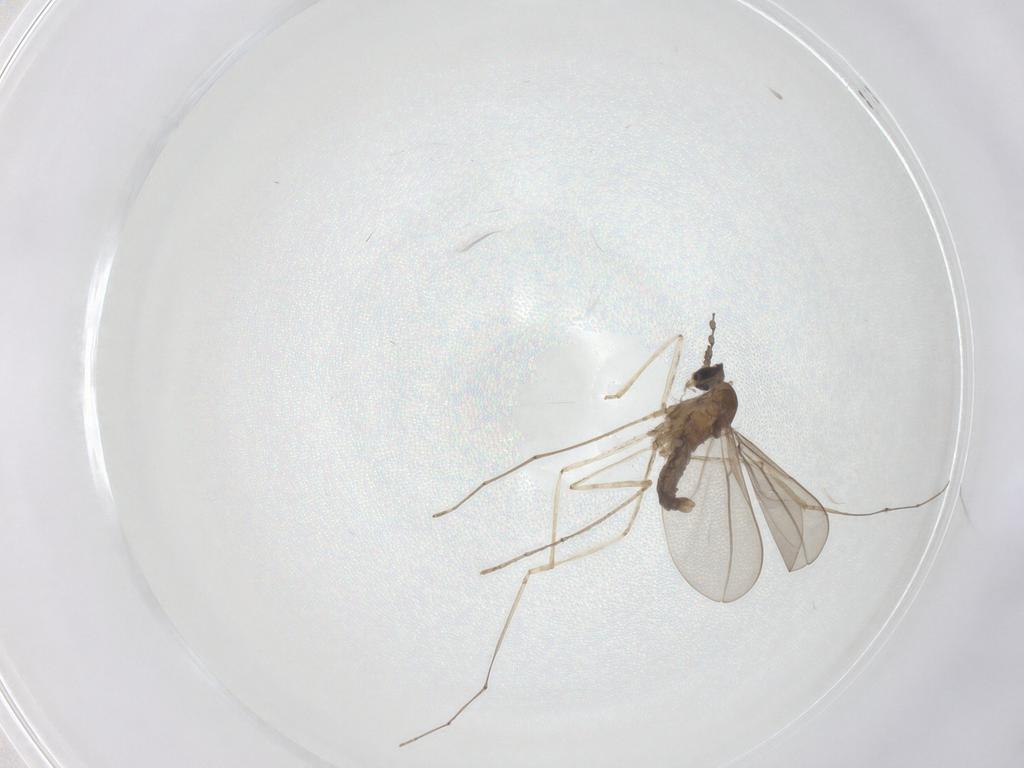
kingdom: Animalia
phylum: Arthropoda
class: Insecta
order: Diptera
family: Cecidomyiidae
